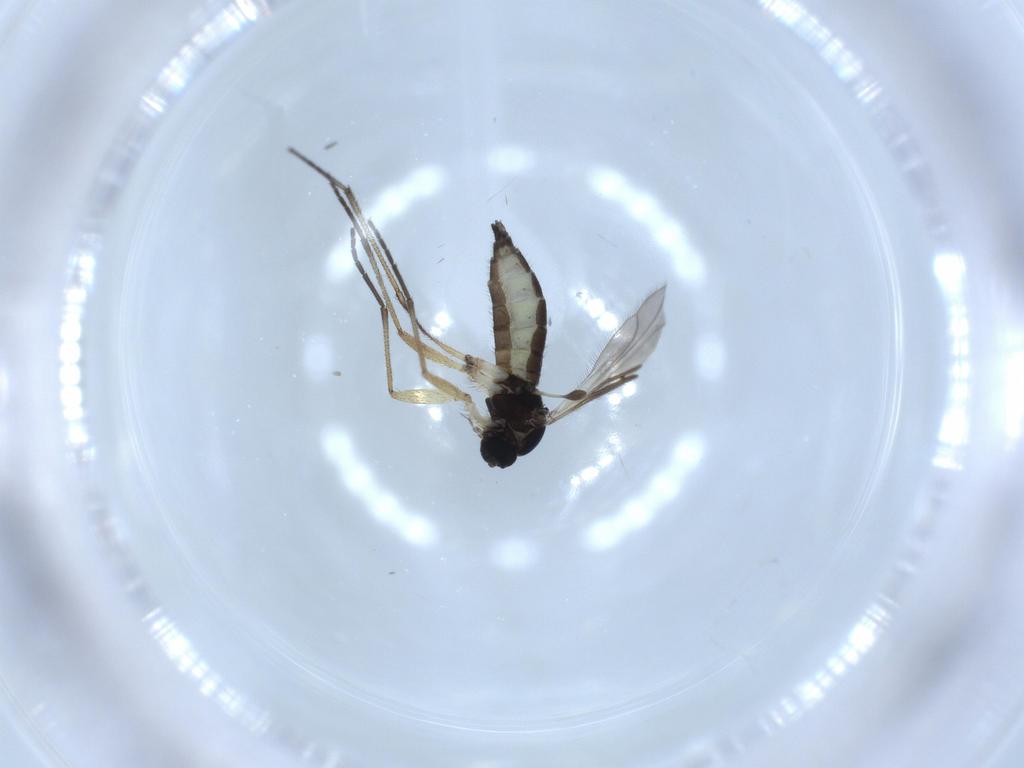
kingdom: Animalia
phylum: Arthropoda
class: Insecta
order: Diptera
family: Sciaridae
